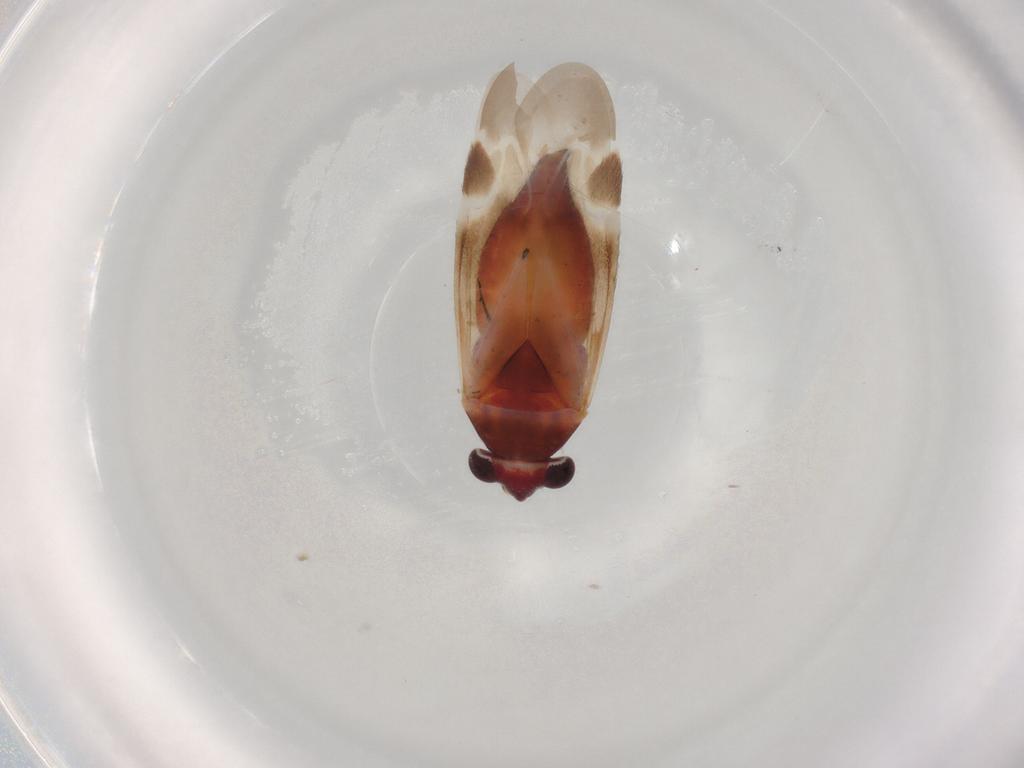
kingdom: Animalia
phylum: Arthropoda
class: Insecta
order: Hemiptera
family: Miridae
